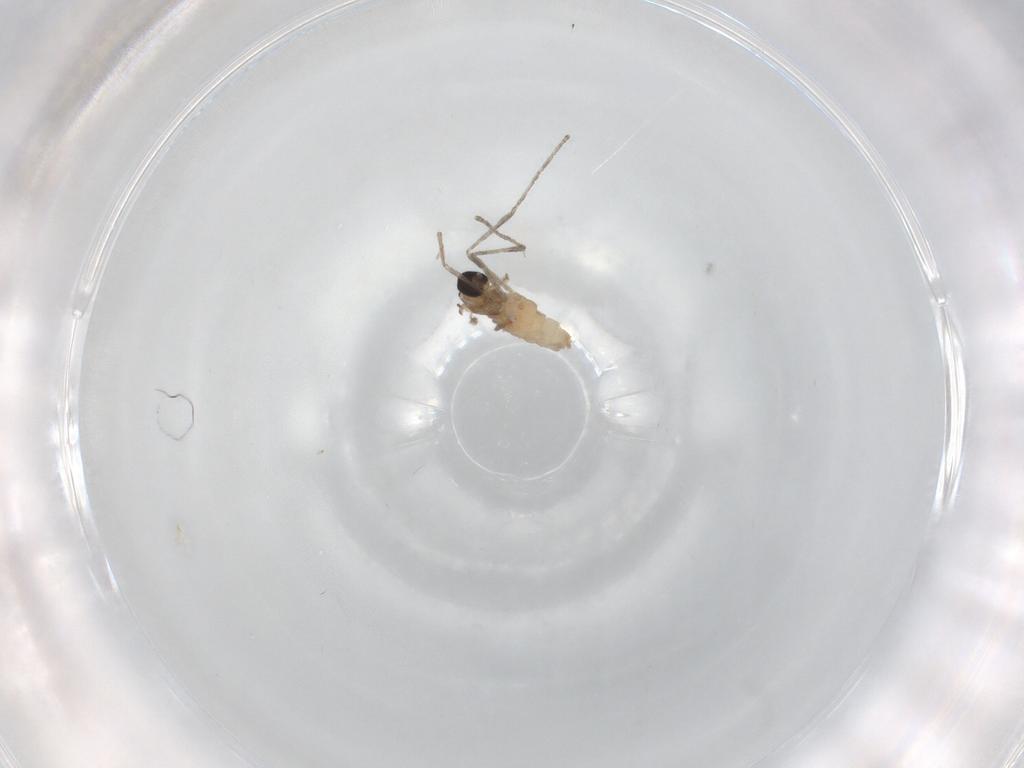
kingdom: Animalia
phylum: Arthropoda
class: Insecta
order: Diptera
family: Cecidomyiidae
